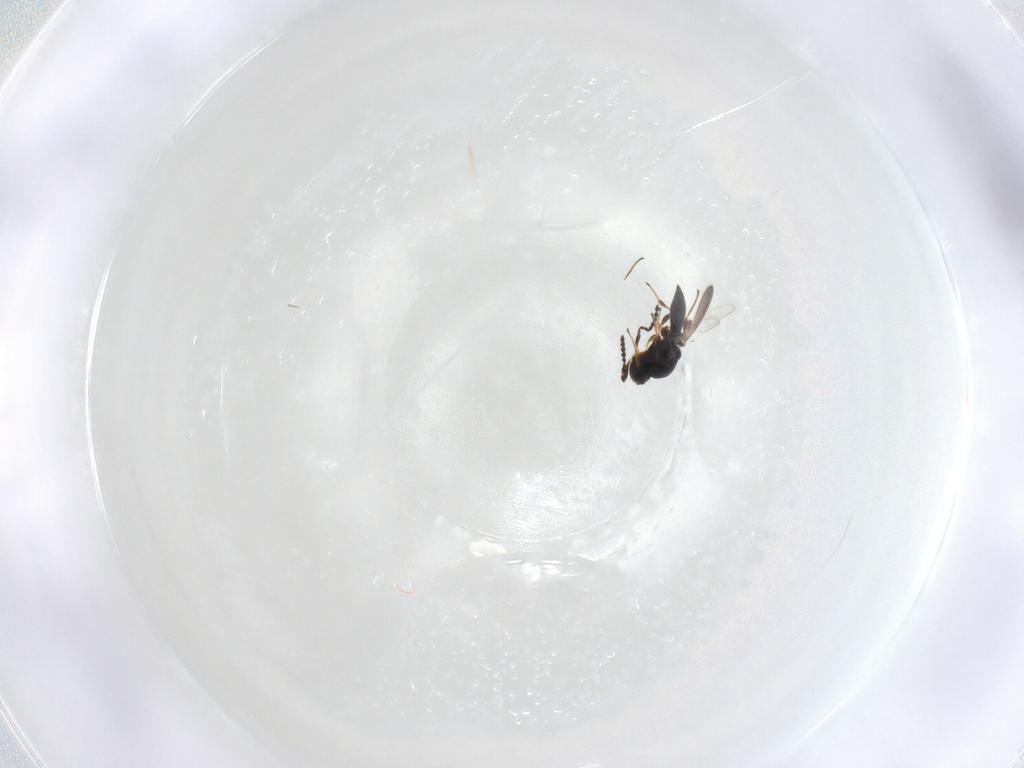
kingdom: Animalia
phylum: Arthropoda
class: Insecta
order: Hymenoptera
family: Platygastridae
